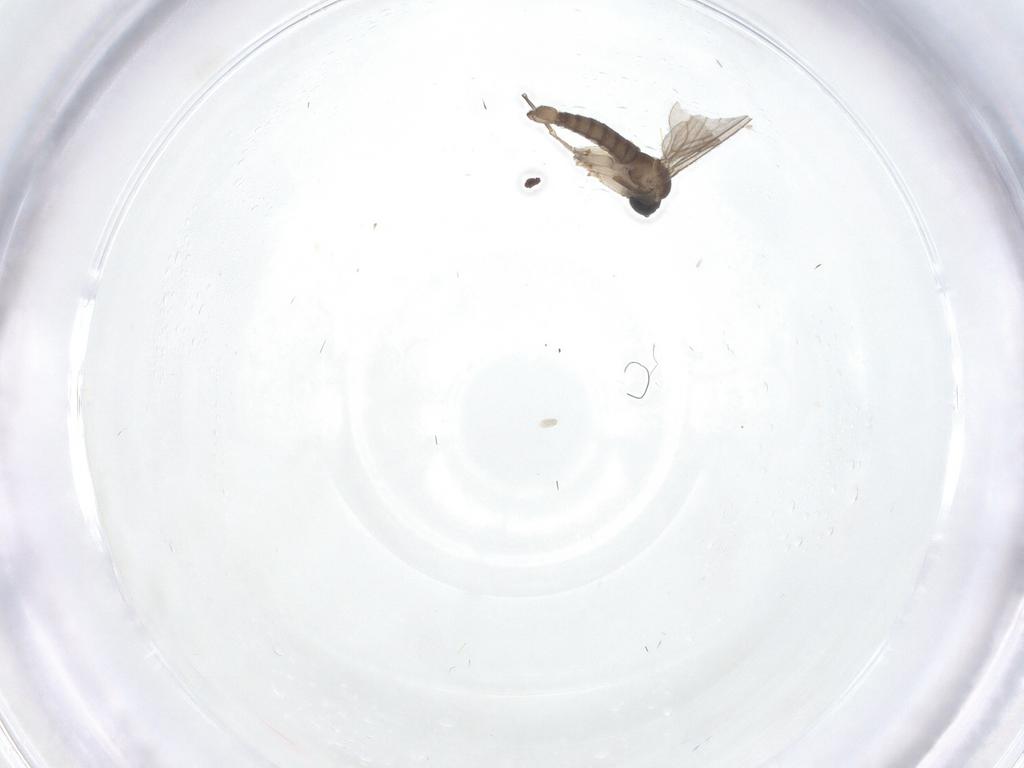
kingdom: Animalia
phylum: Arthropoda
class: Insecta
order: Diptera
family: Sciaridae
